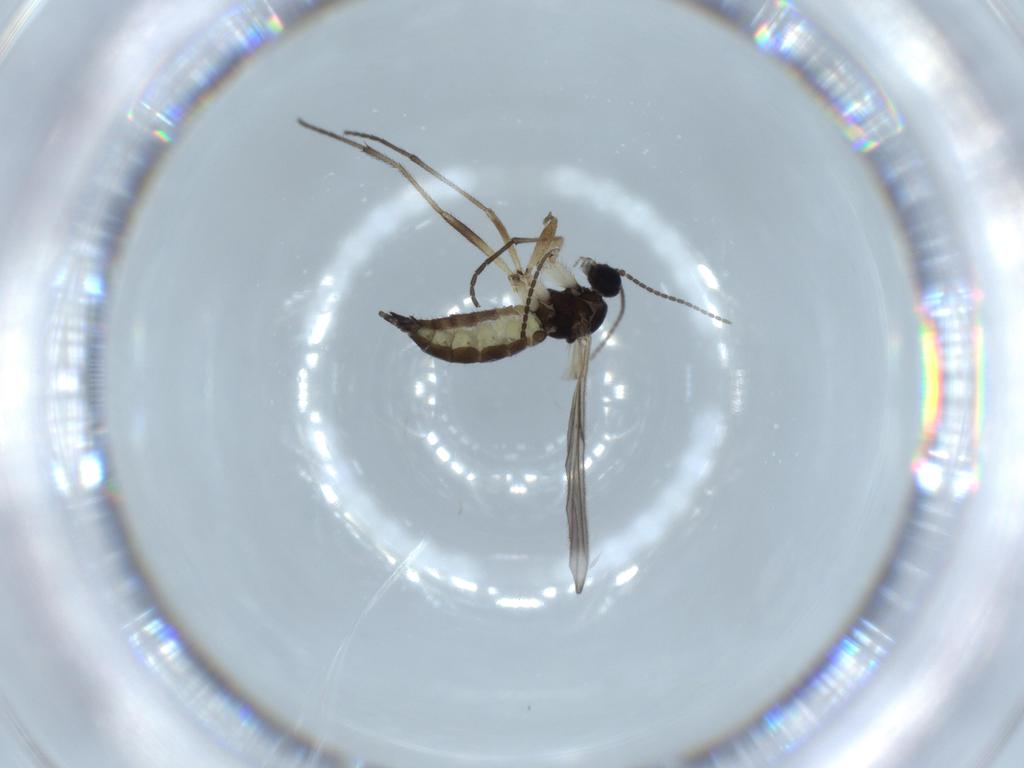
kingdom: Animalia
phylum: Arthropoda
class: Insecta
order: Diptera
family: Sciaridae
